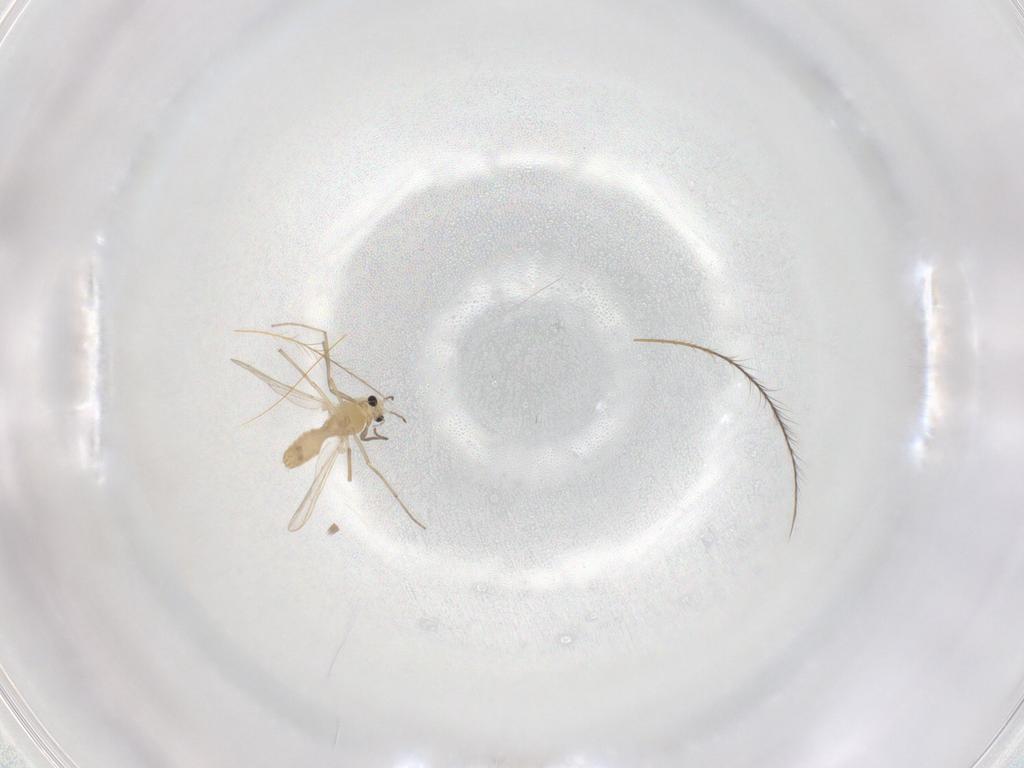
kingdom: Animalia
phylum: Arthropoda
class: Insecta
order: Diptera
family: Chironomidae
